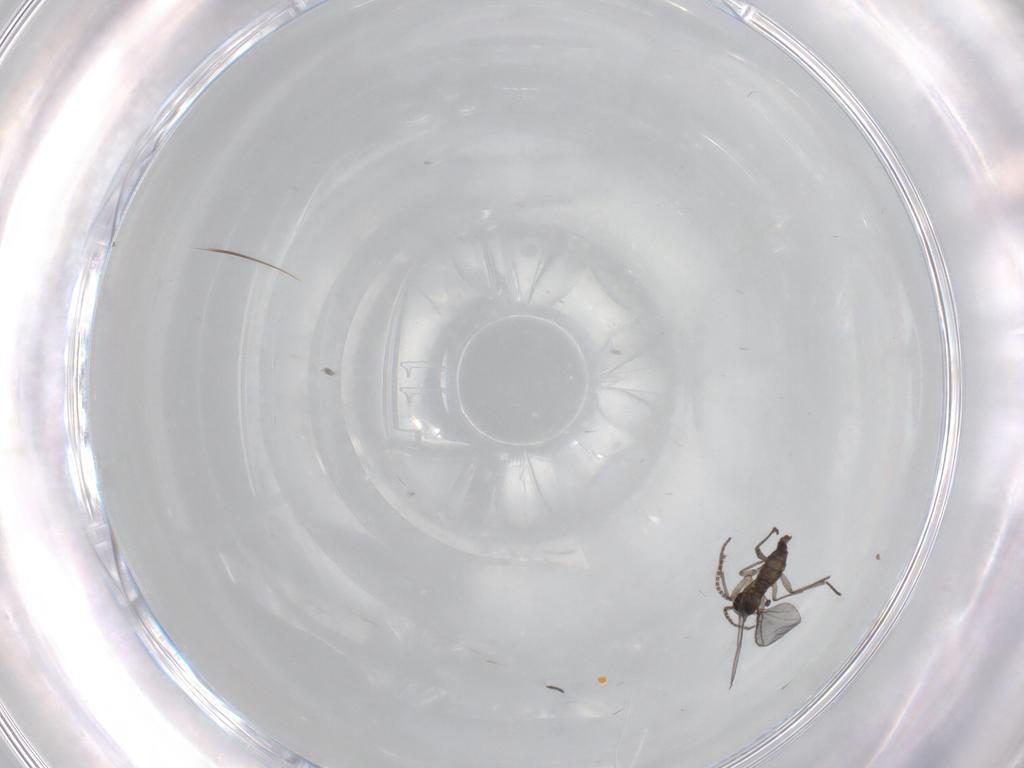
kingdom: Animalia
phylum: Arthropoda
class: Insecta
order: Diptera
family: Sciaridae
